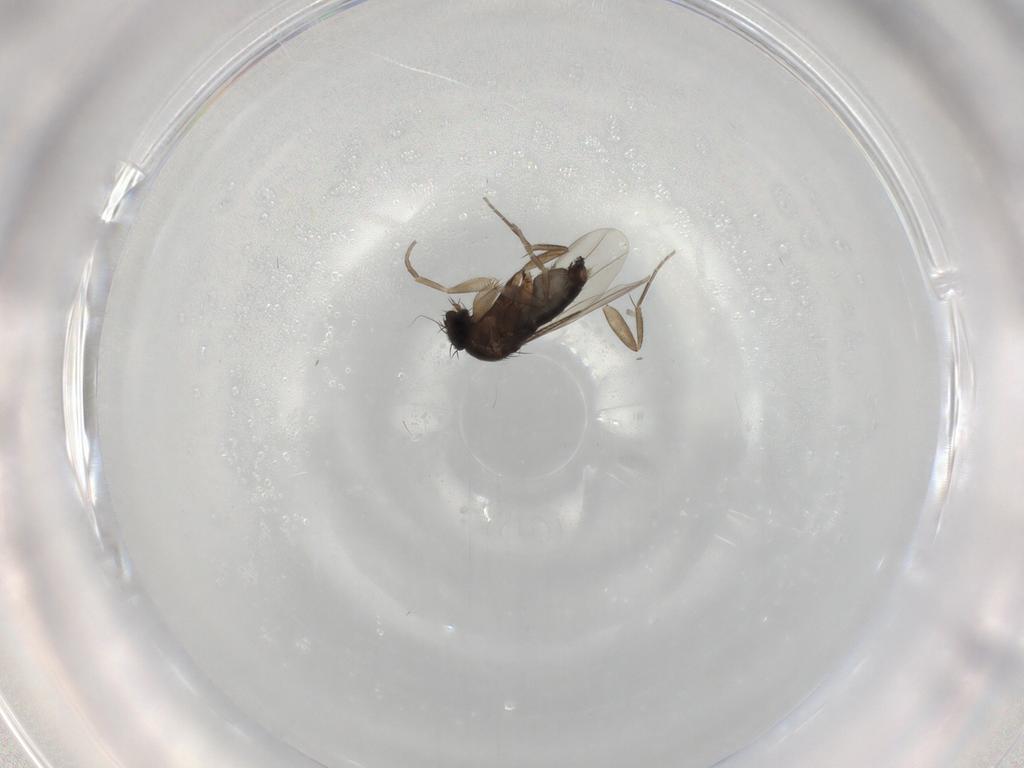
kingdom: Animalia
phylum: Arthropoda
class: Insecta
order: Diptera
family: Phoridae
